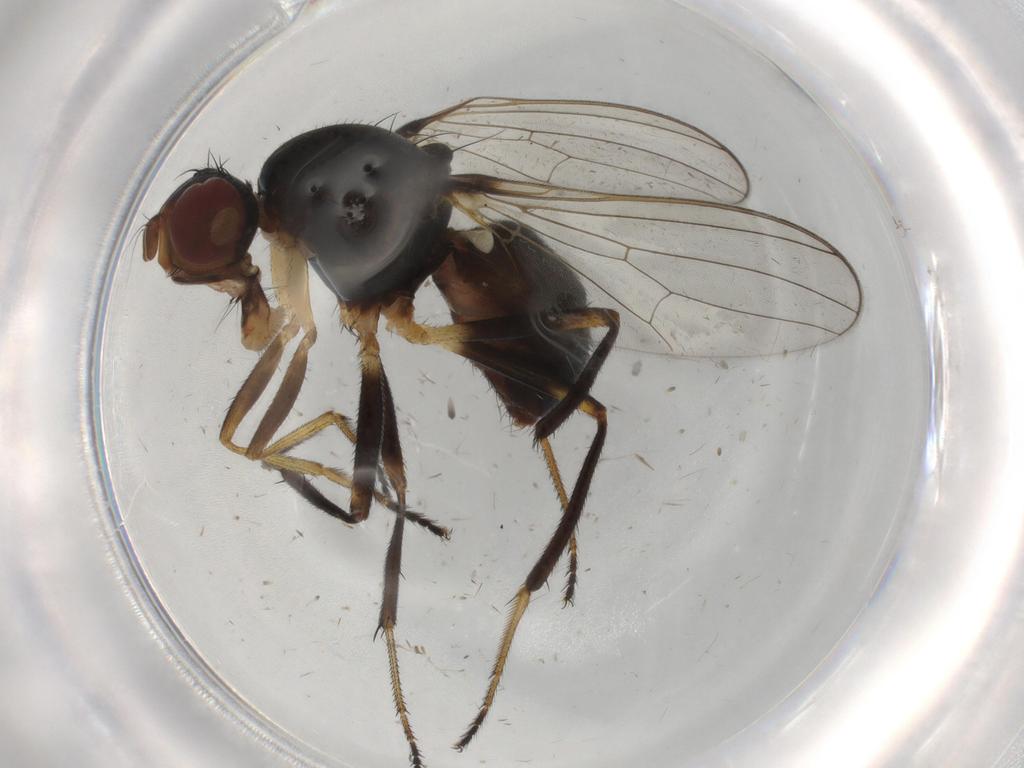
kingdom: Animalia
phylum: Arthropoda
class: Insecta
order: Diptera
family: Sepsidae
